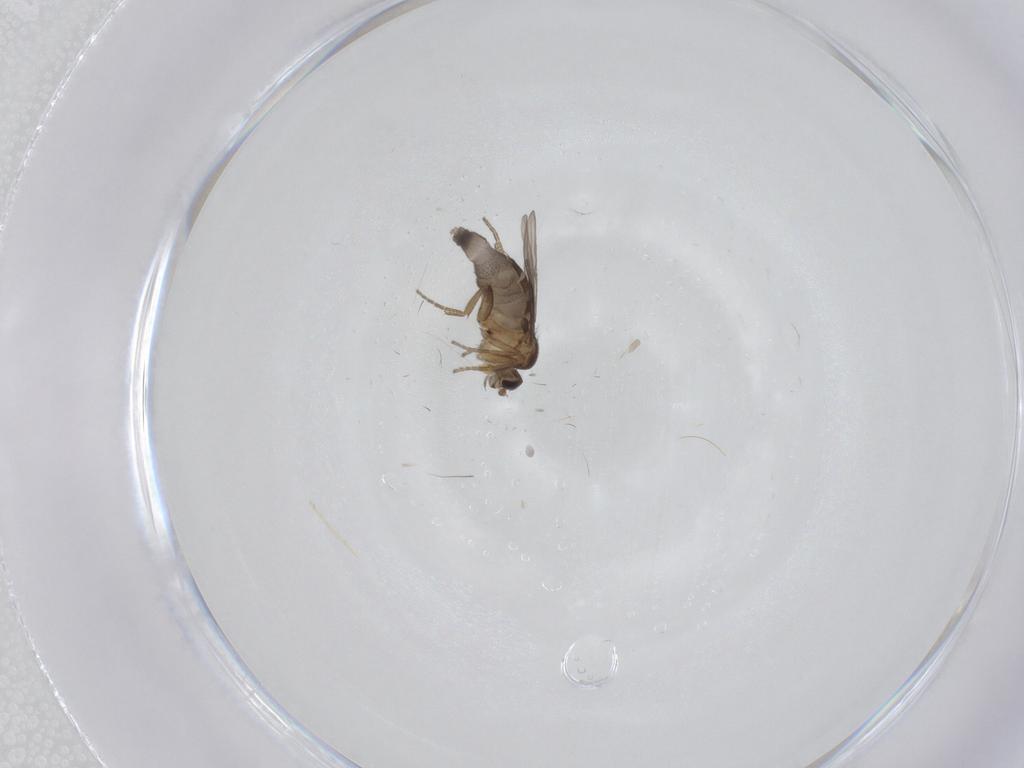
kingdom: Animalia
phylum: Arthropoda
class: Insecta
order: Diptera
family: Phoridae
